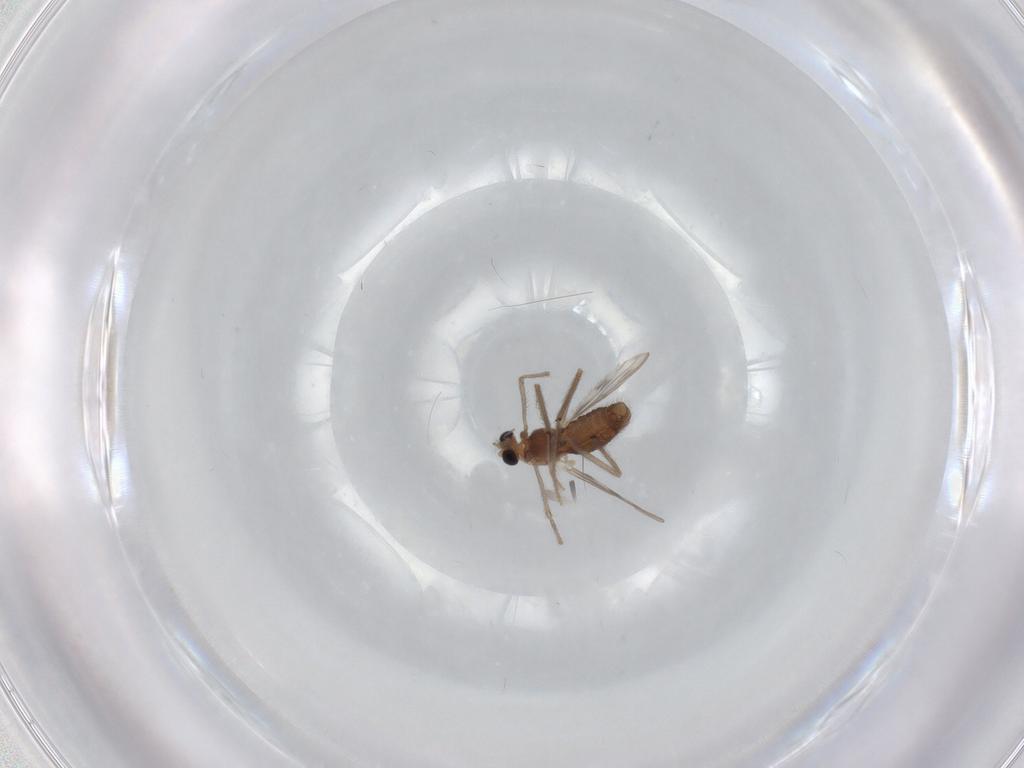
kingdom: Animalia
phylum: Arthropoda
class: Insecta
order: Diptera
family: Chironomidae
